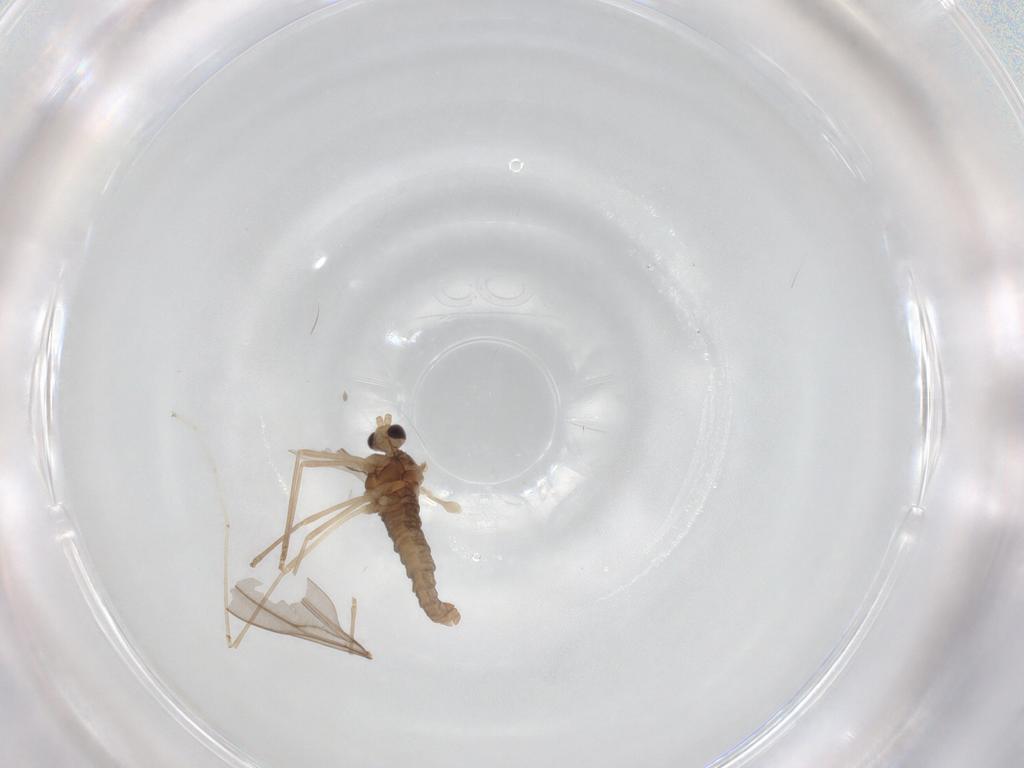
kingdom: Animalia
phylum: Arthropoda
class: Insecta
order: Diptera
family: Cecidomyiidae
